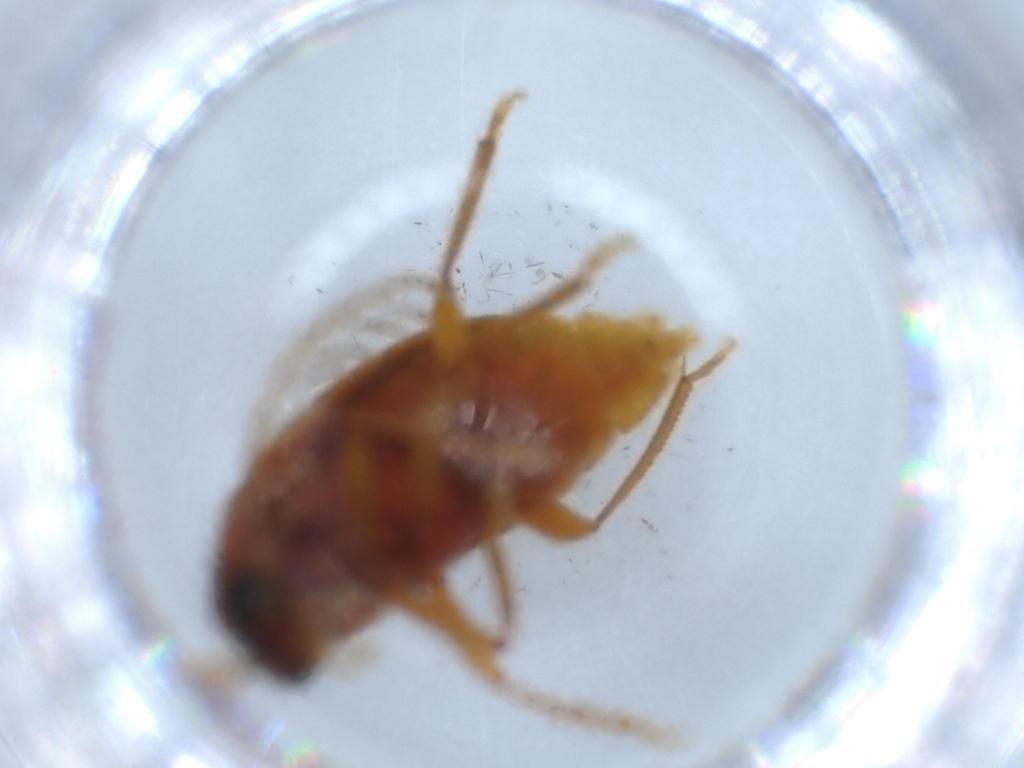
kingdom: Animalia
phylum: Arthropoda
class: Insecta
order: Coleoptera
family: Ptilodactylidae
